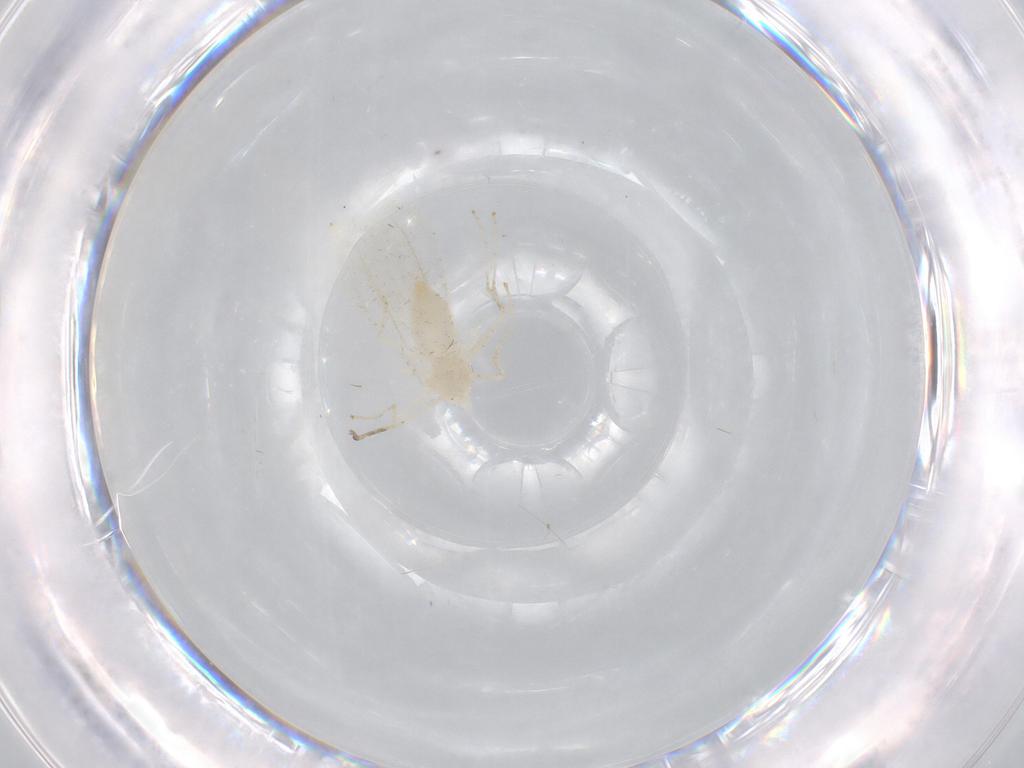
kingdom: Animalia
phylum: Arthropoda
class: Insecta
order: Diptera
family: Cecidomyiidae
